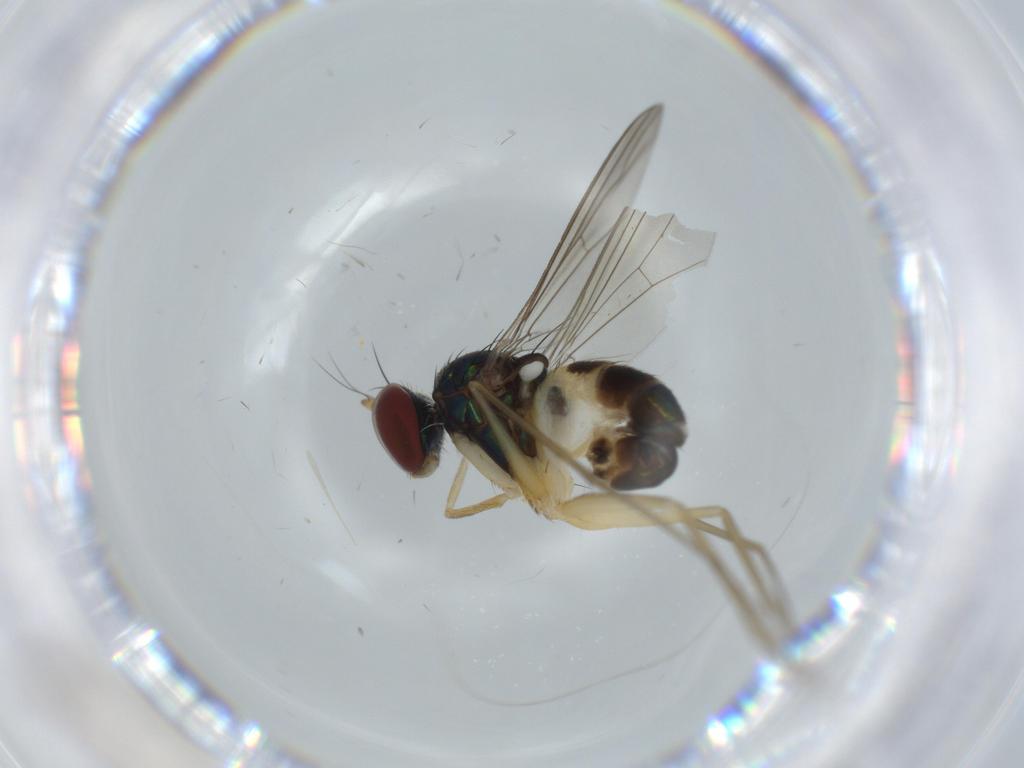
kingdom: Animalia
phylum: Arthropoda
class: Insecta
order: Diptera
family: Dolichopodidae
